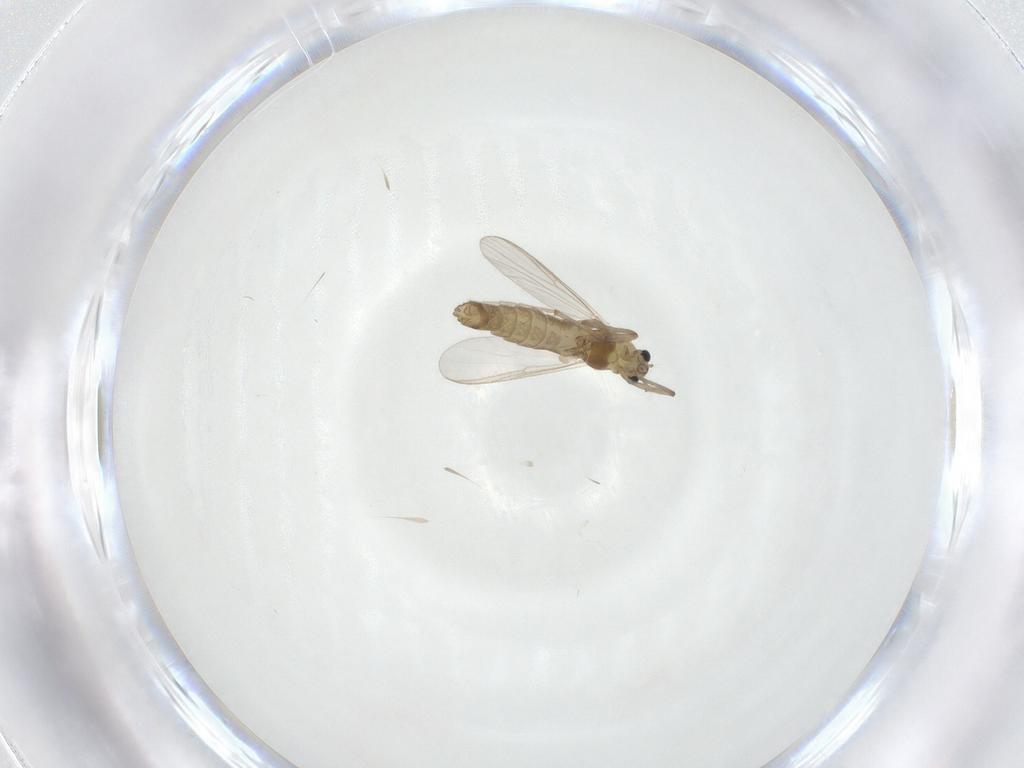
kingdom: Animalia
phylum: Arthropoda
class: Insecta
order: Diptera
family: Chironomidae
